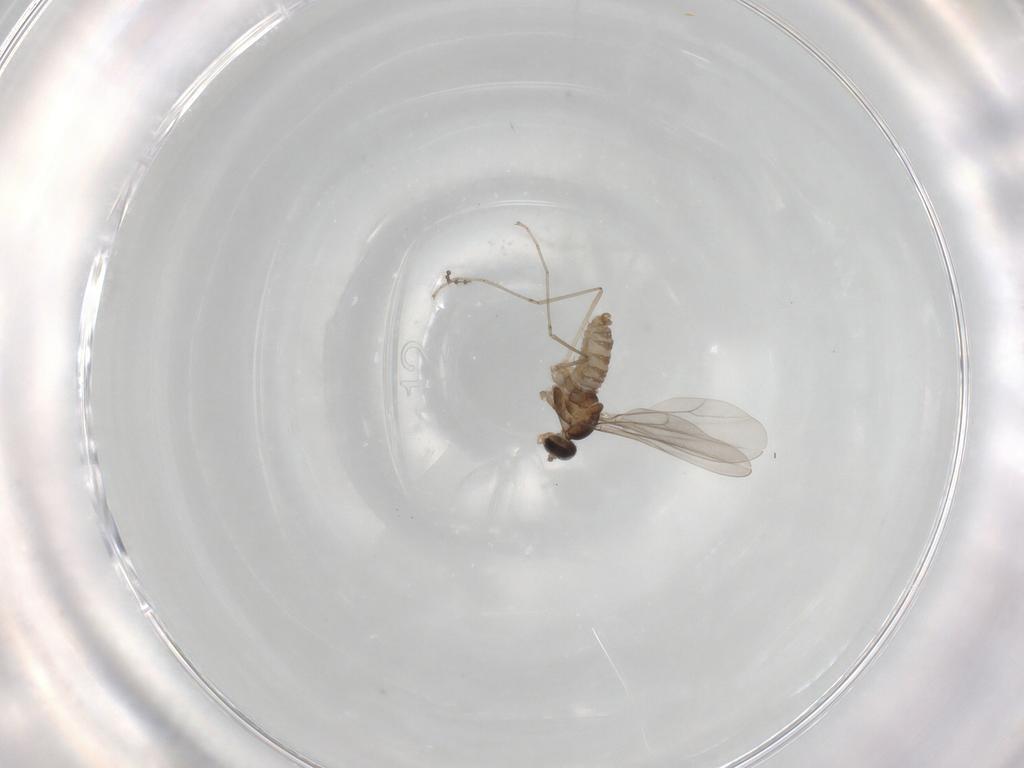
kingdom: Animalia
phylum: Arthropoda
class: Insecta
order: Diptera
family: Cecidomyiidae
